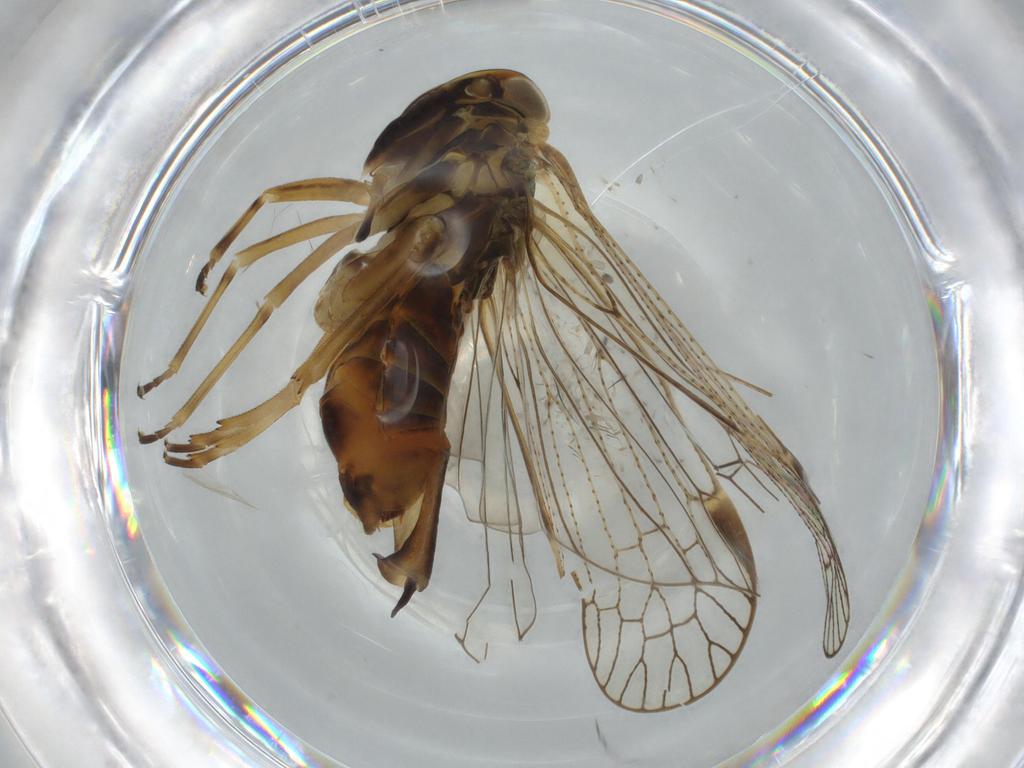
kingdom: Animalia
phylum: Arthropoda
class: Insecta
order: Hemiptera
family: Cixiidae
